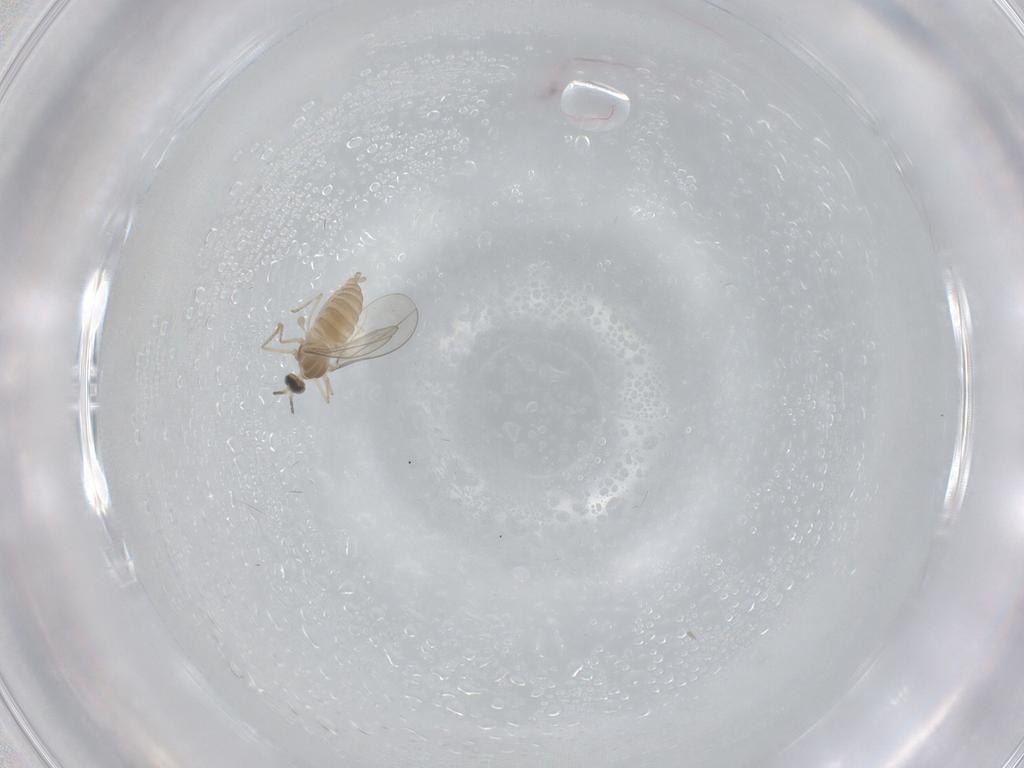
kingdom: Animalia
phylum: Arthropoda
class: Insecta
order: Diptera
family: Cecidomyiidae
